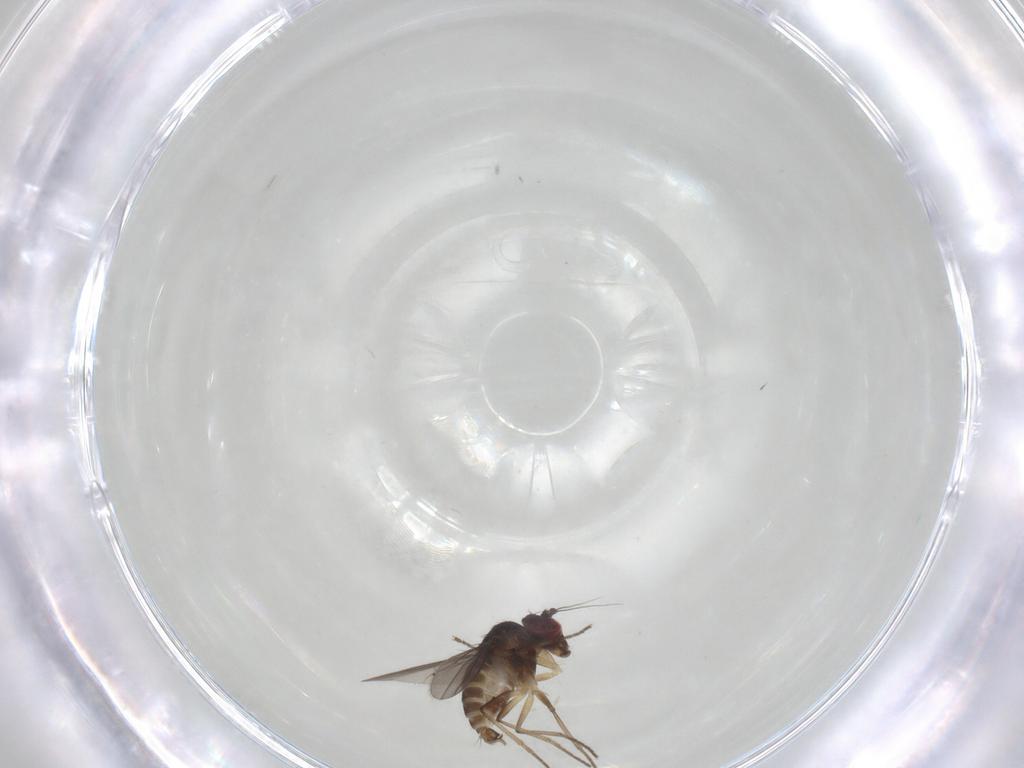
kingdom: Animalia
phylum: Arthropoda
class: Insecta
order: Diptera
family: Dolichopodidae
